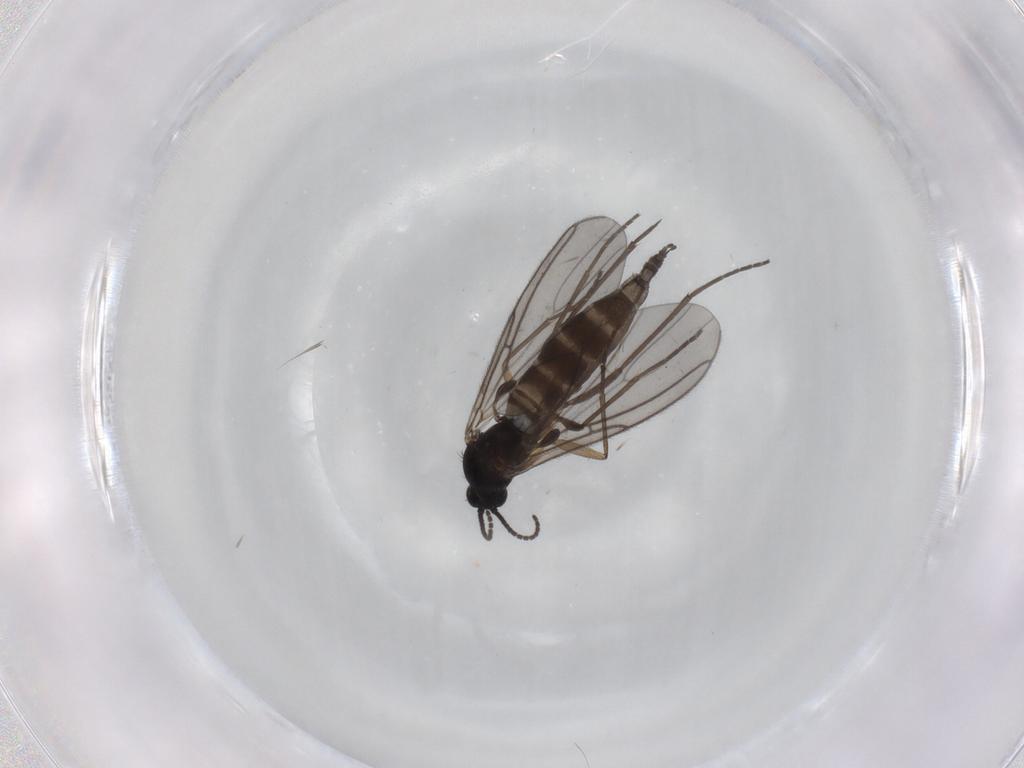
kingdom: Animalia
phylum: Arthropoda
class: Insecta
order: Diptera
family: Sciaridae
